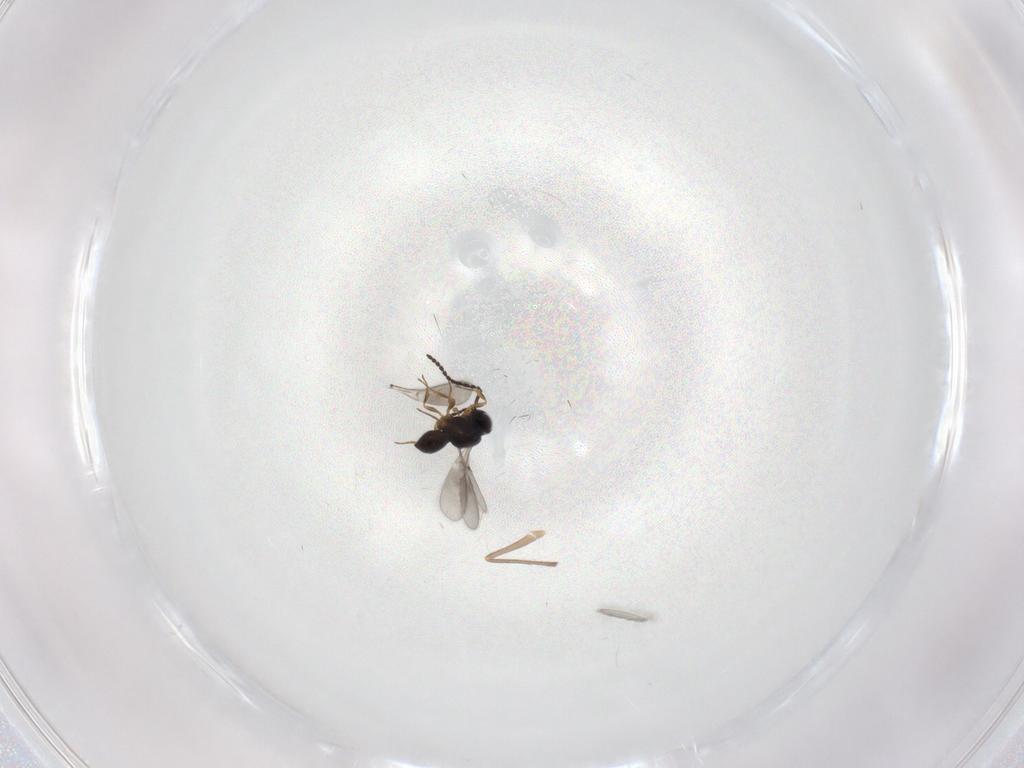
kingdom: Animalia
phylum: Arthropoda
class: Insecta
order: Hymenoptera
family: Scelionidae
